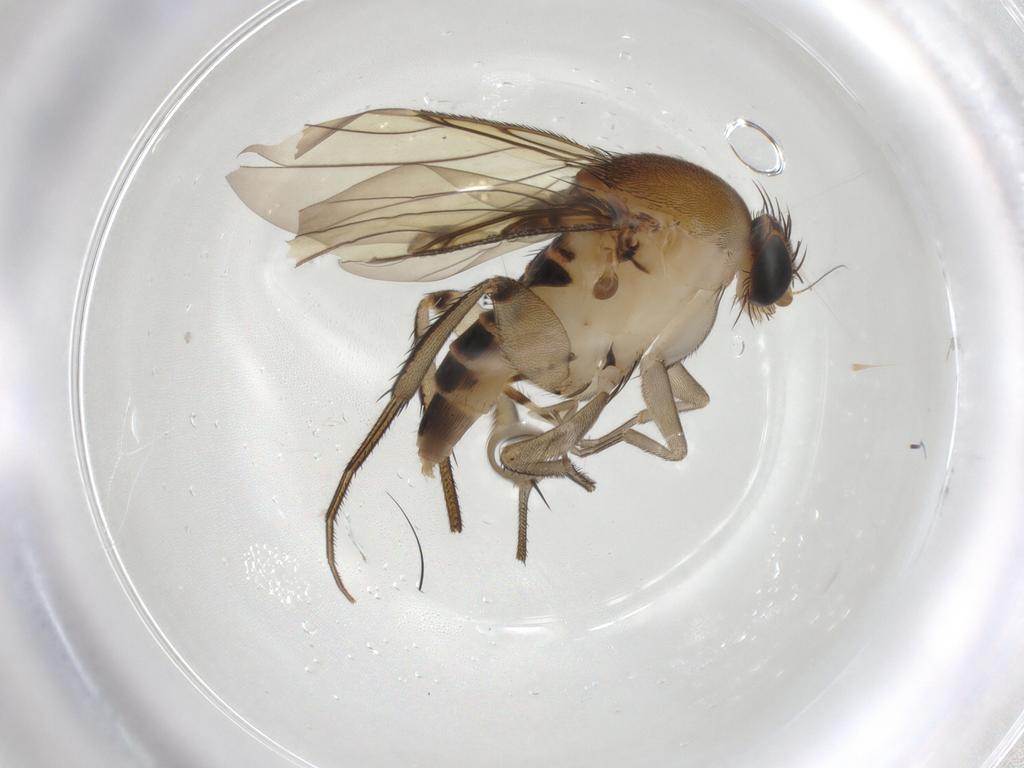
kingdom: Animalia
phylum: Arthropoda
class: Insecta
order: Diptera
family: Phoridae
